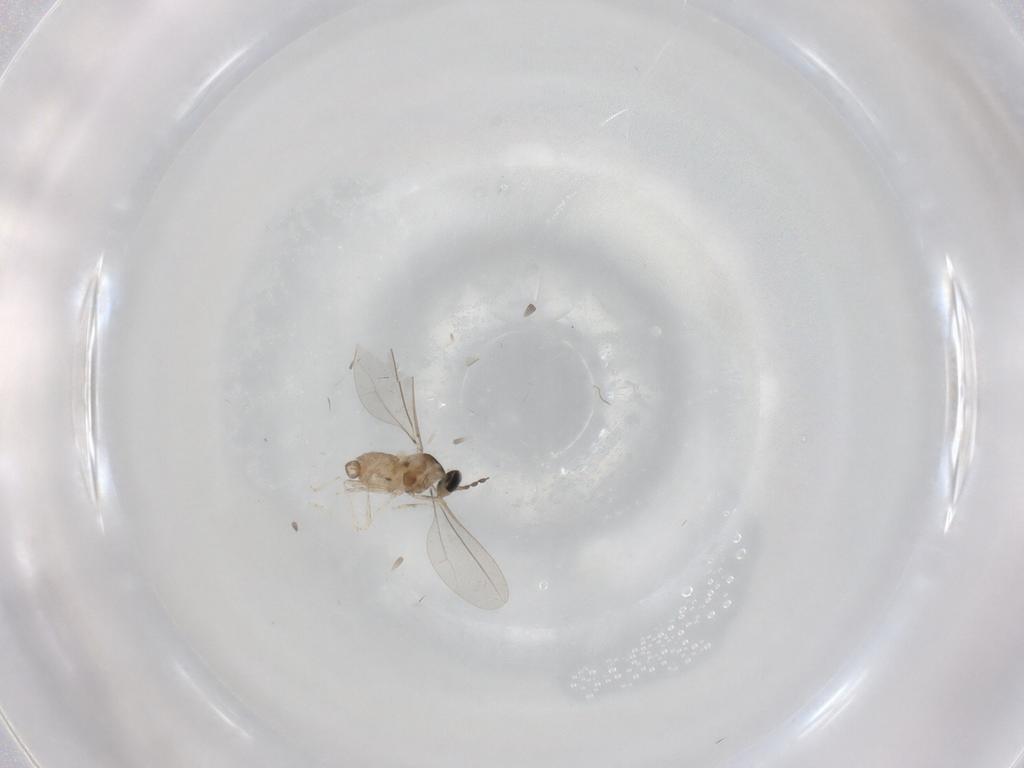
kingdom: Animalia
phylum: Arthropoda
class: Insecta
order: Diptera
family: Cecidomyiidae
